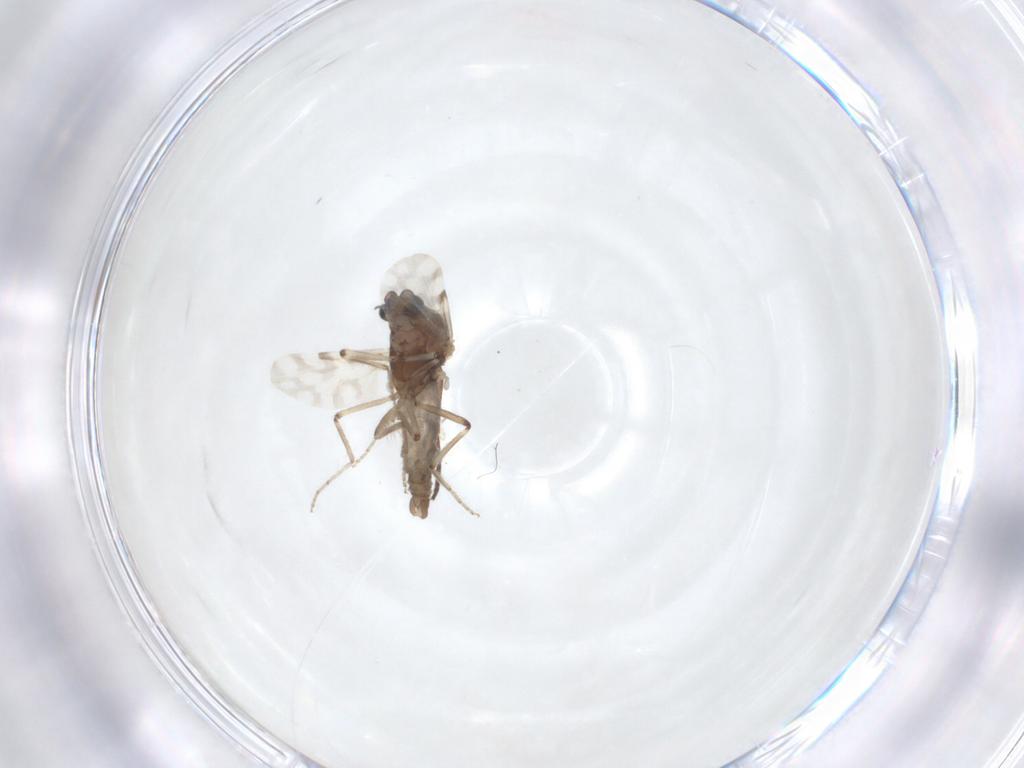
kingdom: Animalia
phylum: Arthropoda
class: Insecta
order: Diptera
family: Ceratopogonidae
